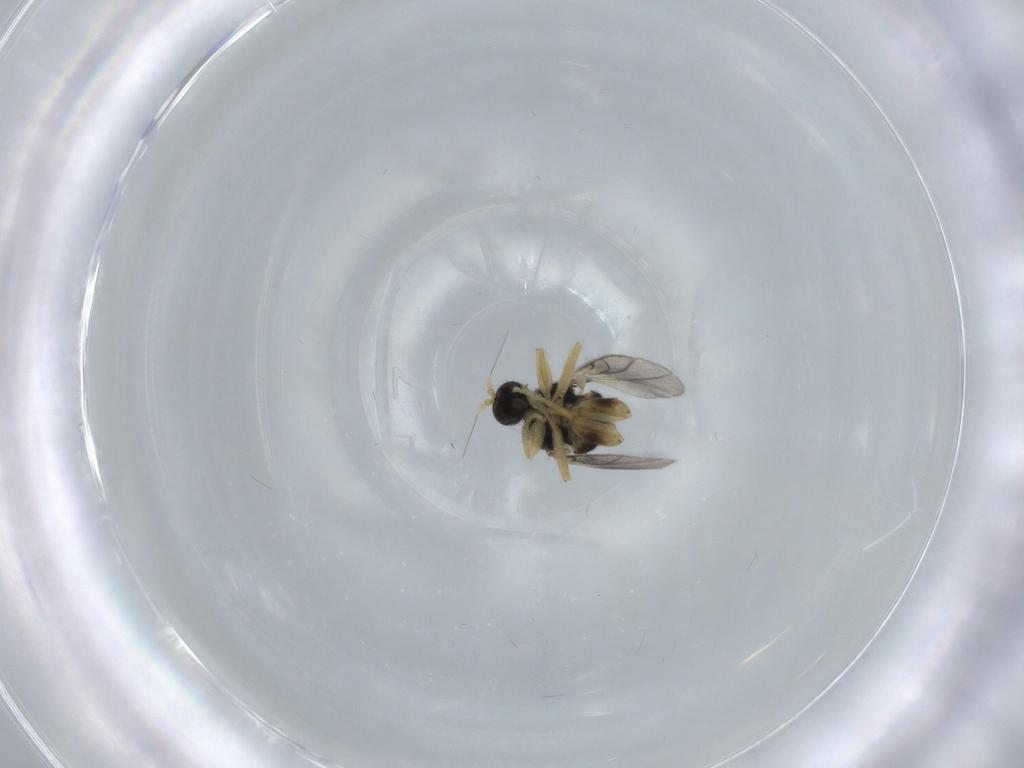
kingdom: Animalia
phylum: Arthropoda
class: Insecta
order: Diptera
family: Hybotidae
